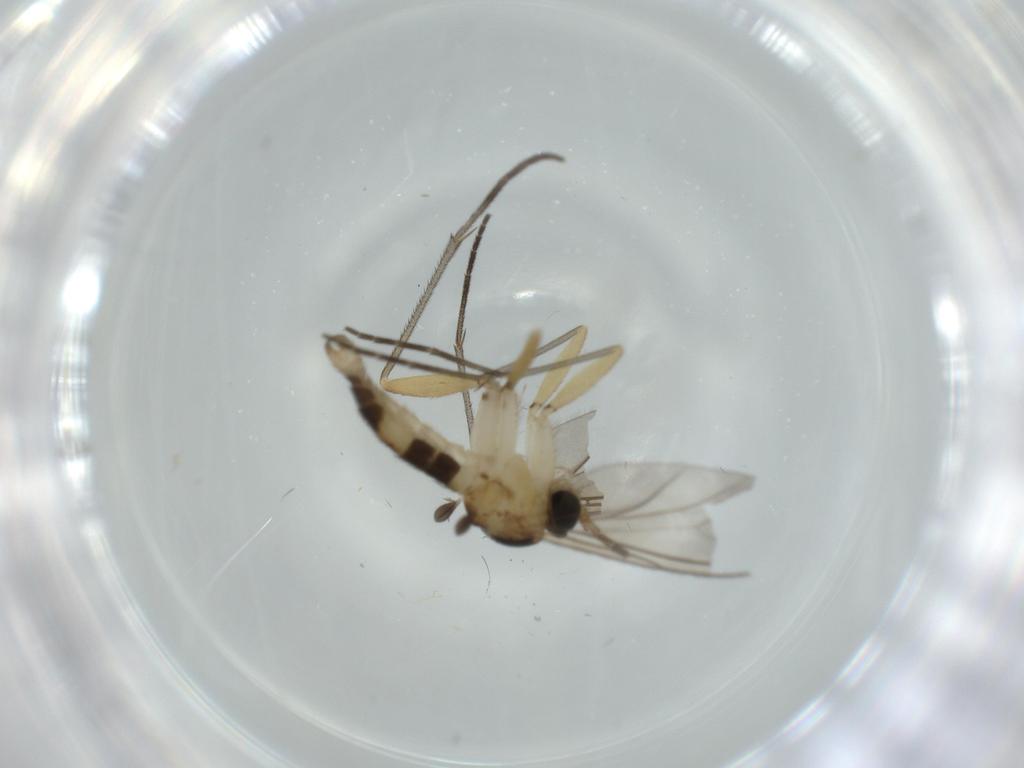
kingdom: Animalia
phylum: Arthropoda
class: Insecta
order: Diptera
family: Sciaridae
